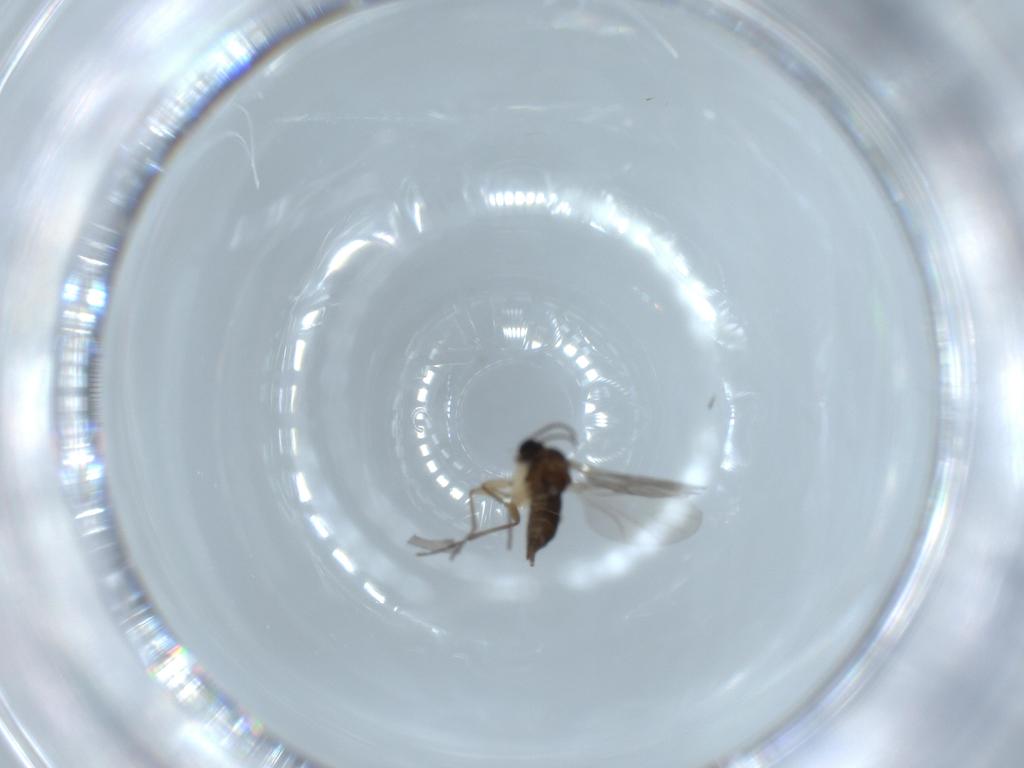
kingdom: Animalia
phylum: Arthropoda
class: Insecta
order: Diptera
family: Sciaridae
